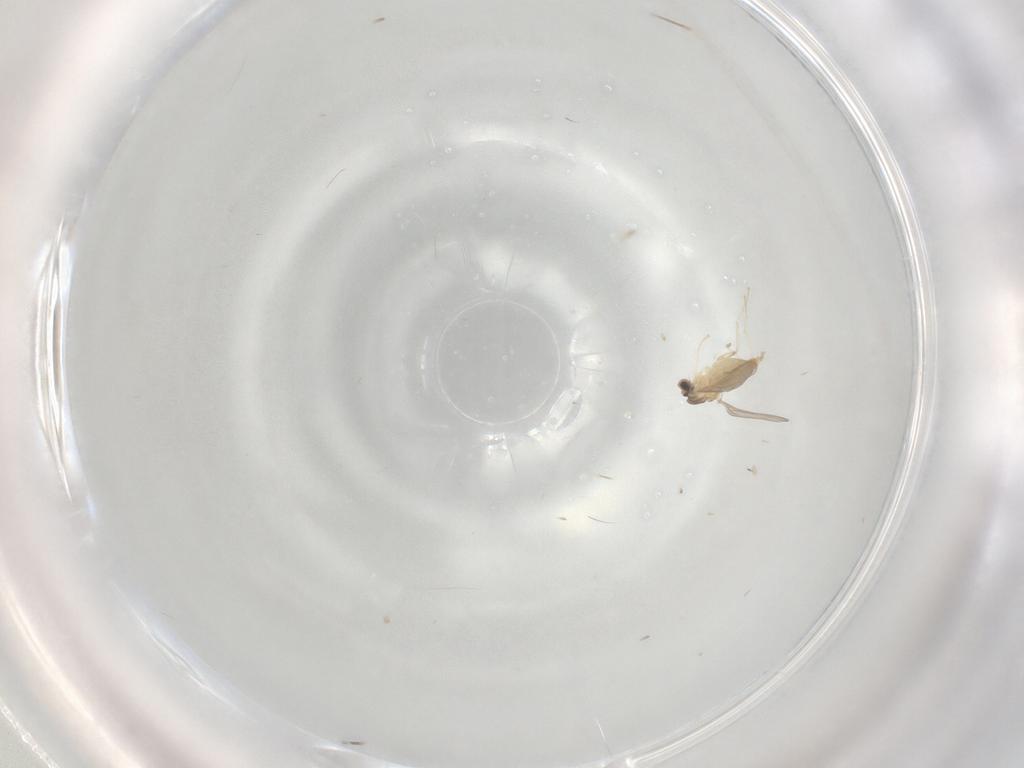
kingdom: Animalia
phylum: Arthropoda
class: Insecta
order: Diptera
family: Cecidomyiidae
